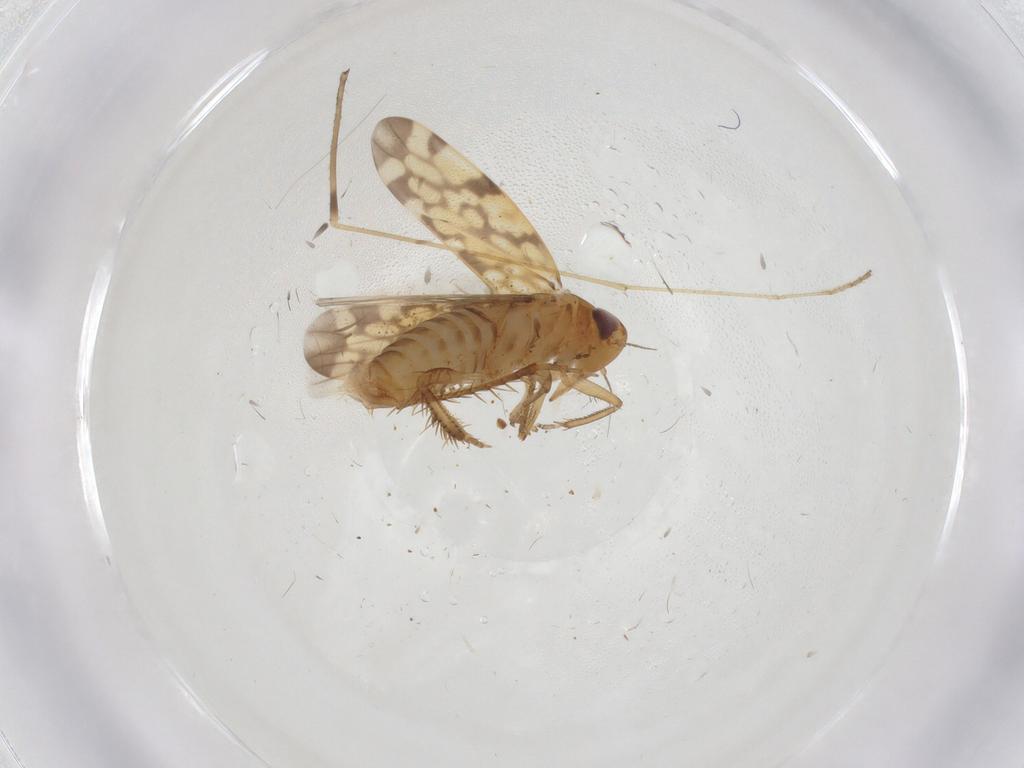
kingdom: Animalia
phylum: Arthropoda
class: Insecta
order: Hemiptera
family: Cicadellidae
